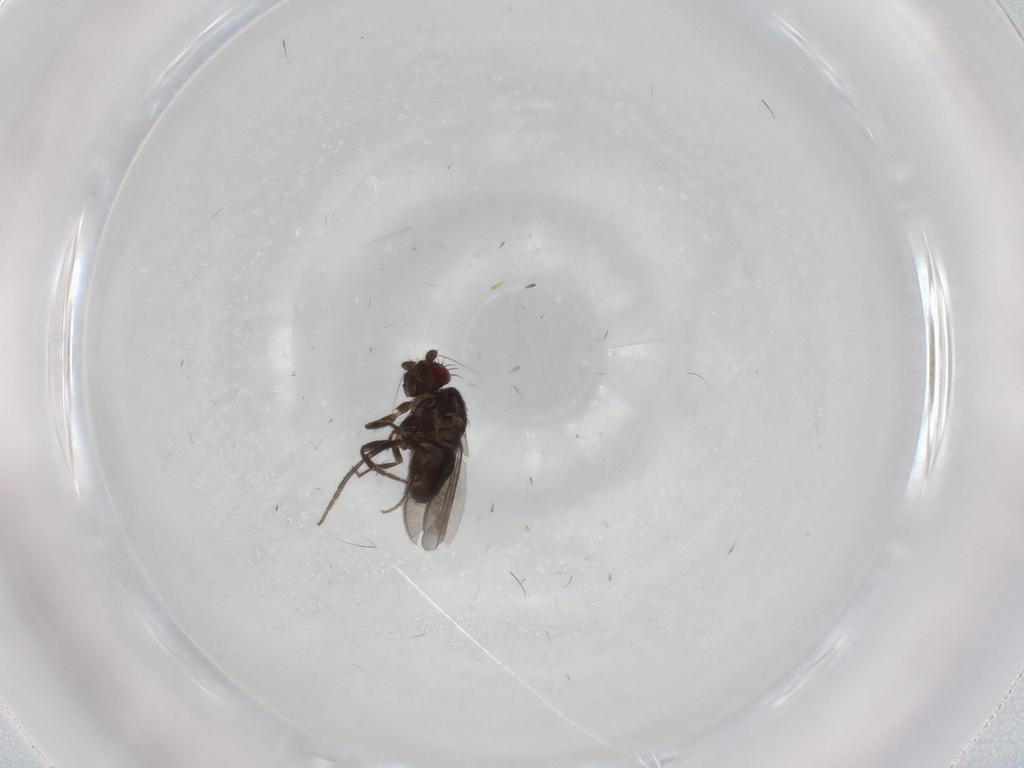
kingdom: Animalia
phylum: Arthropoda
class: Insecta
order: Diptera
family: Sphaeroceridae
